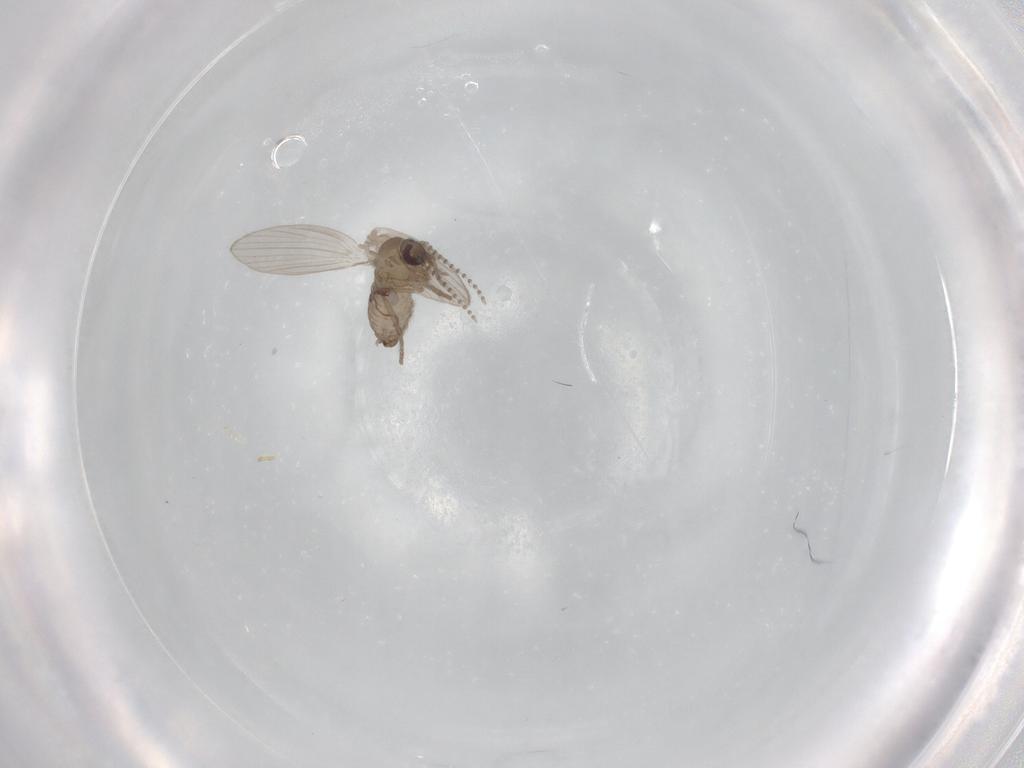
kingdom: Animalia
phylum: Arthropoda
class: Insecta
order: Diptera
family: Psychodidae
